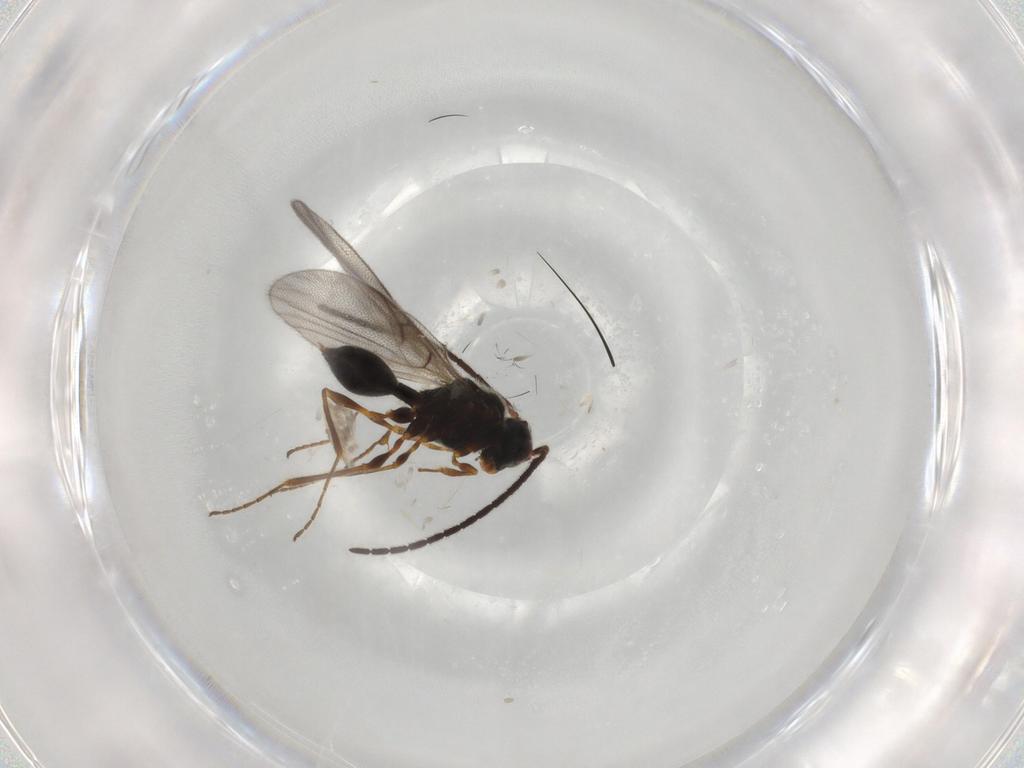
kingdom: Animalia
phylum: Arthropoda
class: Insecta
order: Hymenoptera
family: Diapriidae
